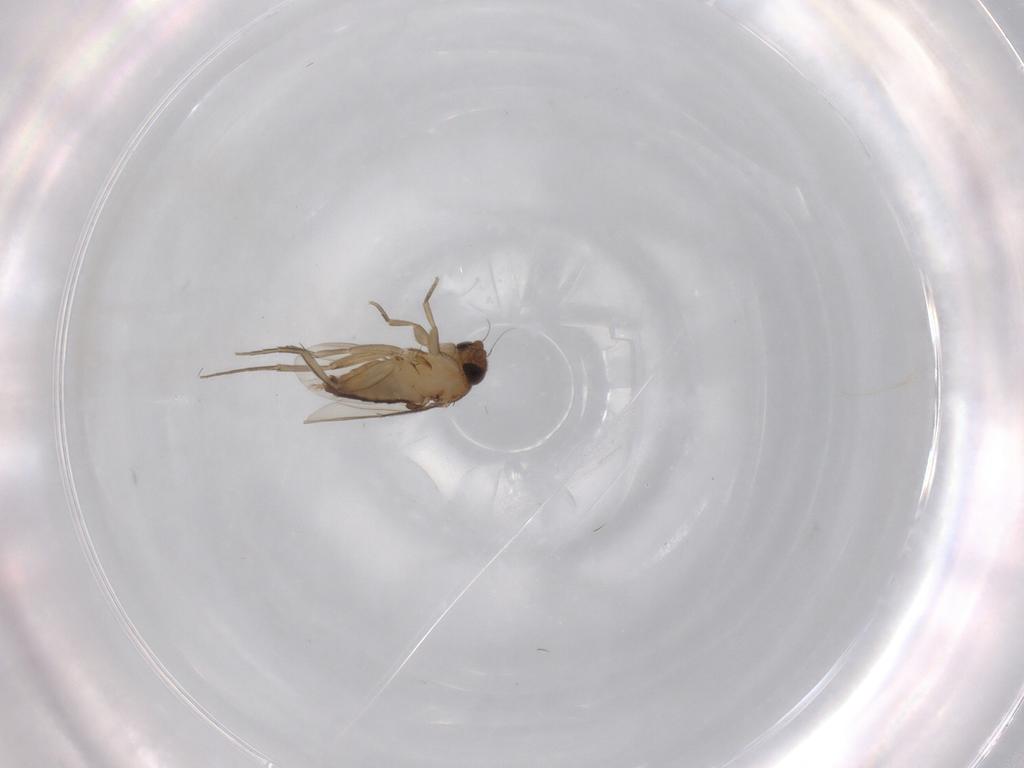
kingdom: Animalia
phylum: Arthropoda
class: Insecta
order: Diptera
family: Phoridae
